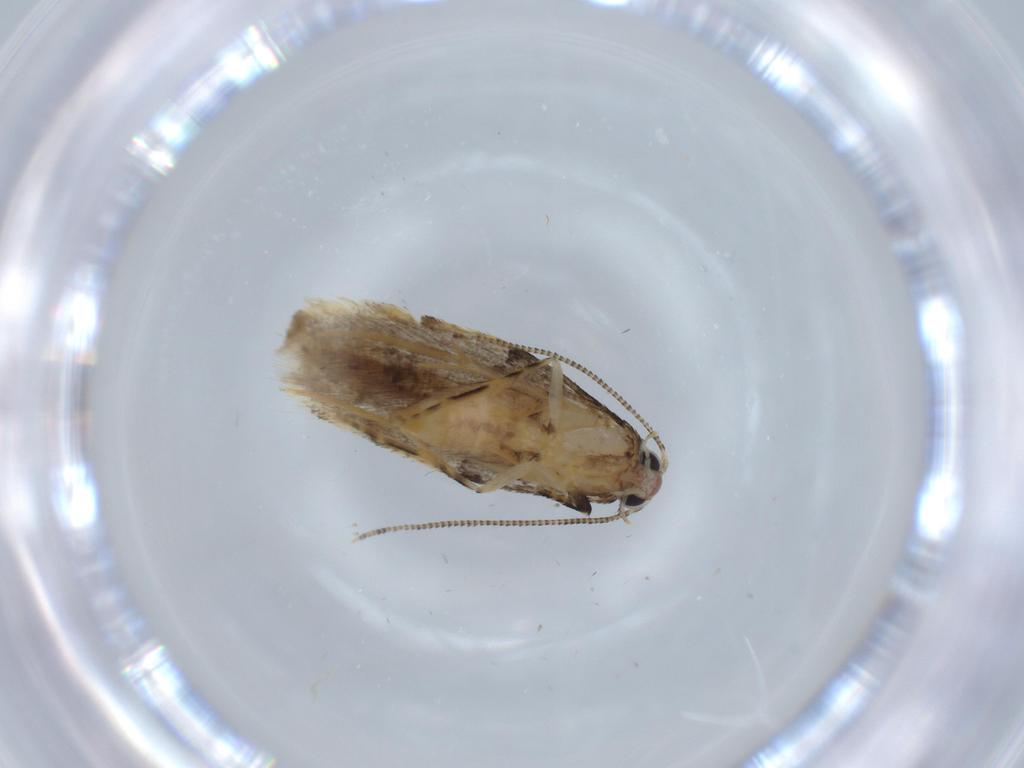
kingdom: Animalia
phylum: Arthropoda
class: Insecta
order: Lepidoptera
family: Tineidae
